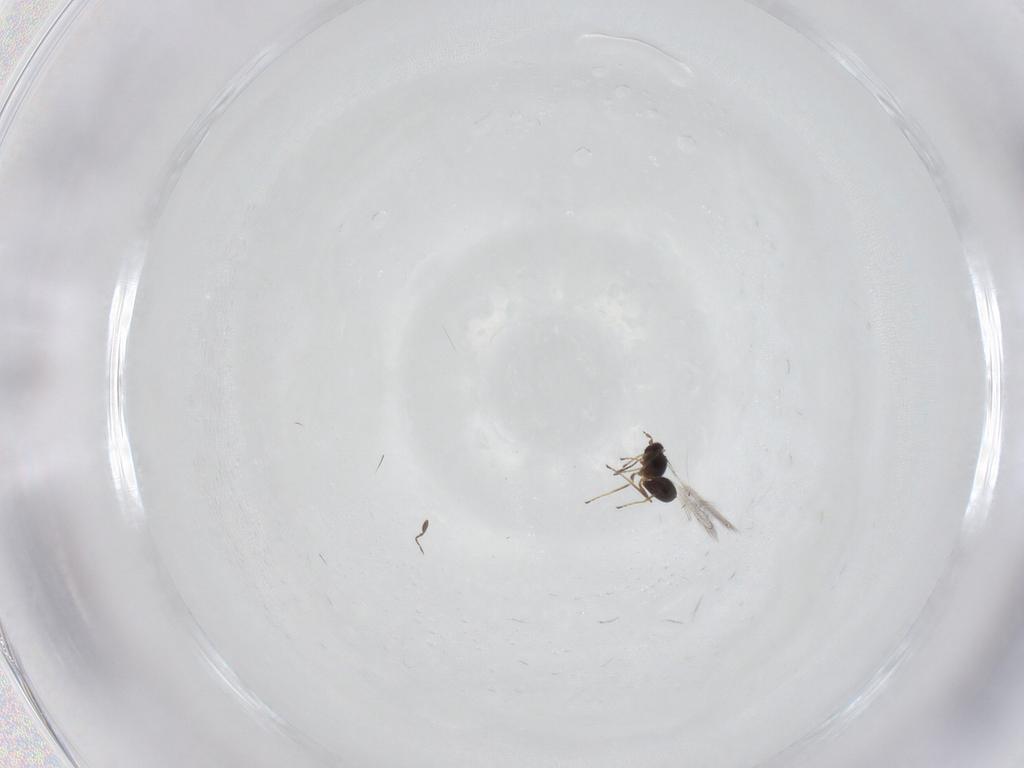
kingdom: Animalia
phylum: Arthropoda
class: Insecta
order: Hymenoptera
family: Mymaridae
